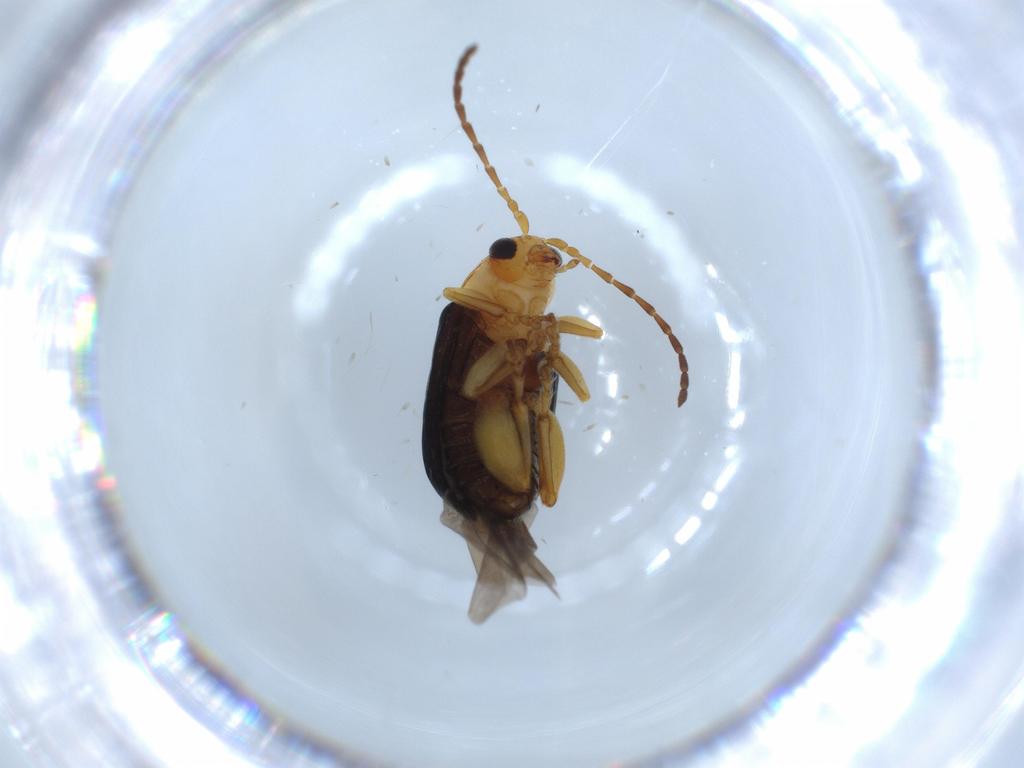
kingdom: Animalia
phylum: Arthropoda
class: Insecta
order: Coleoptera
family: Chrysomelidae
